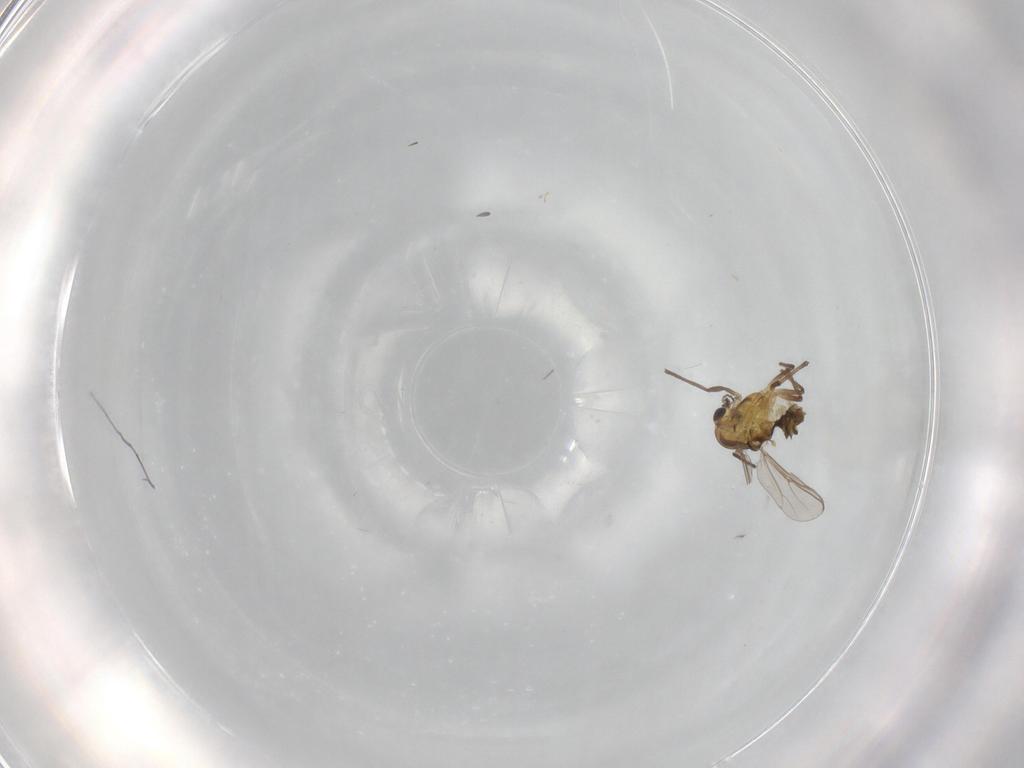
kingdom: Animalia
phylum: Arthropoda
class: Insecta
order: Diptera
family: Chironomidae
